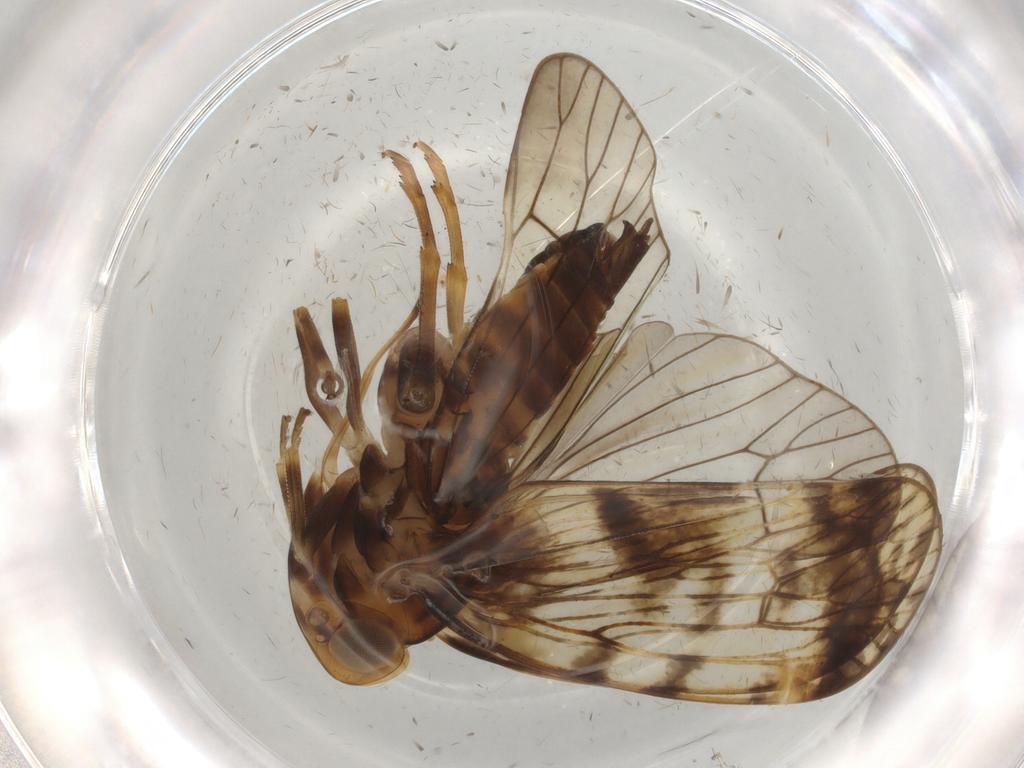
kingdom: Animalia
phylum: Arthropoda
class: Insecta
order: Hemiptera
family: Cixiidae
